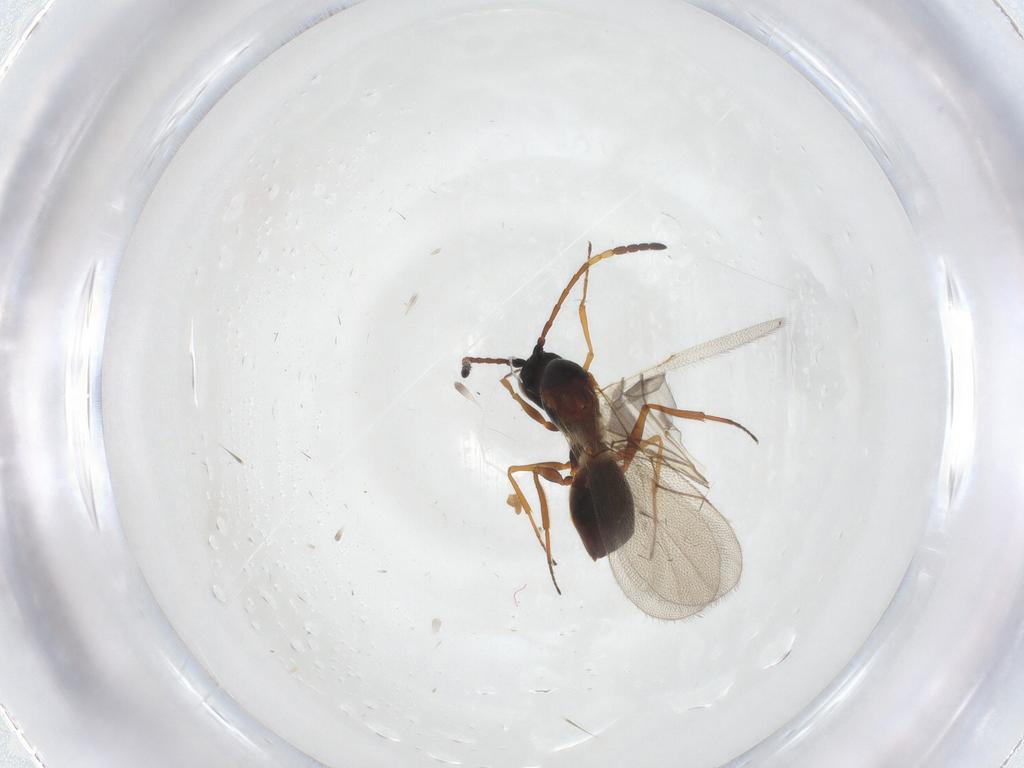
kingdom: Animalia
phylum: Arthropoda
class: Insecta
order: Hymenoptera
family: Figitidae
